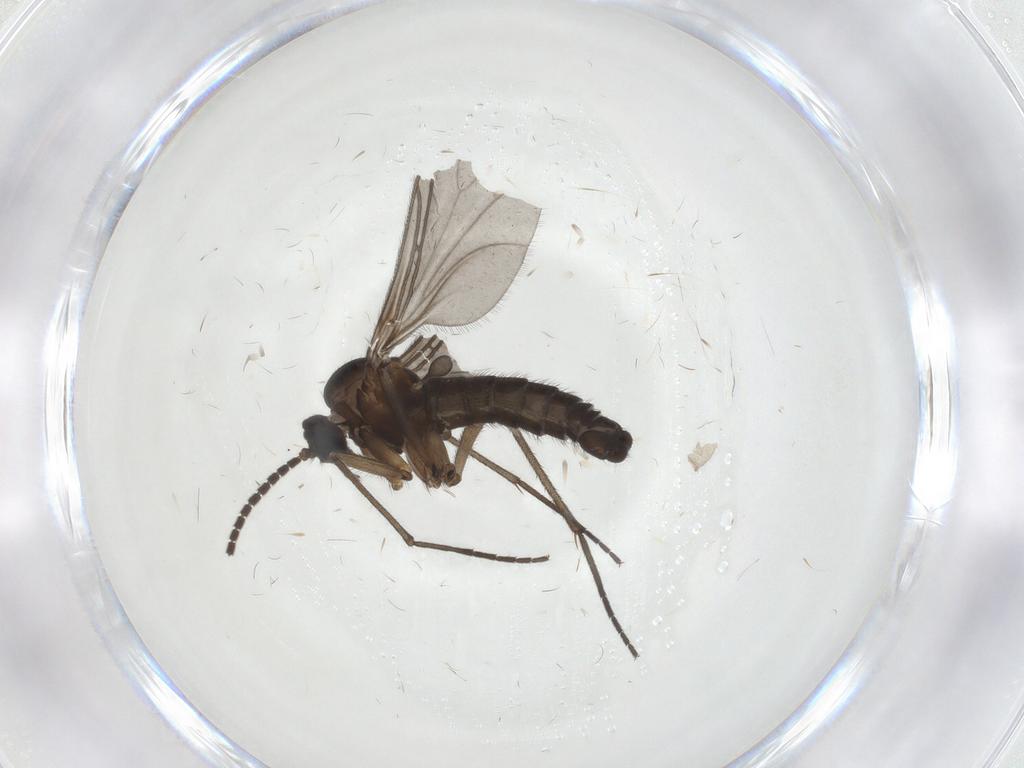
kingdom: Animalia
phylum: Arthropoda
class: Insecta
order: Diptera
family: Sciaridae
